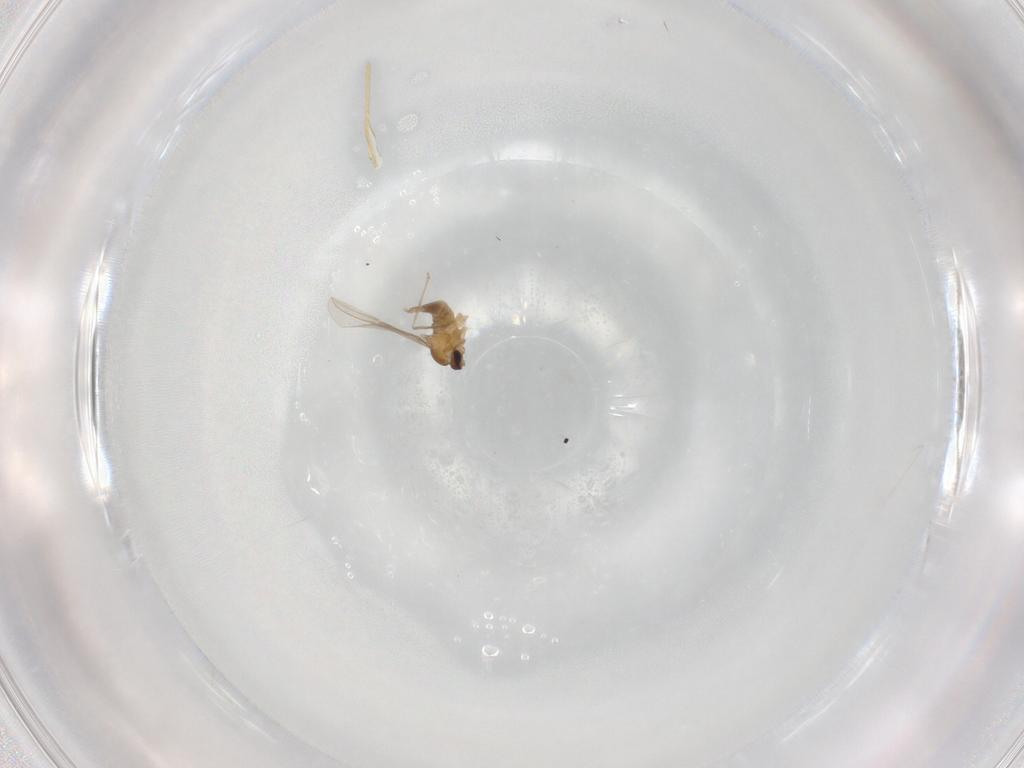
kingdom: Animalia
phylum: Arthropoda
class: Insecta
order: Diptera
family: Cecidomyiidae
